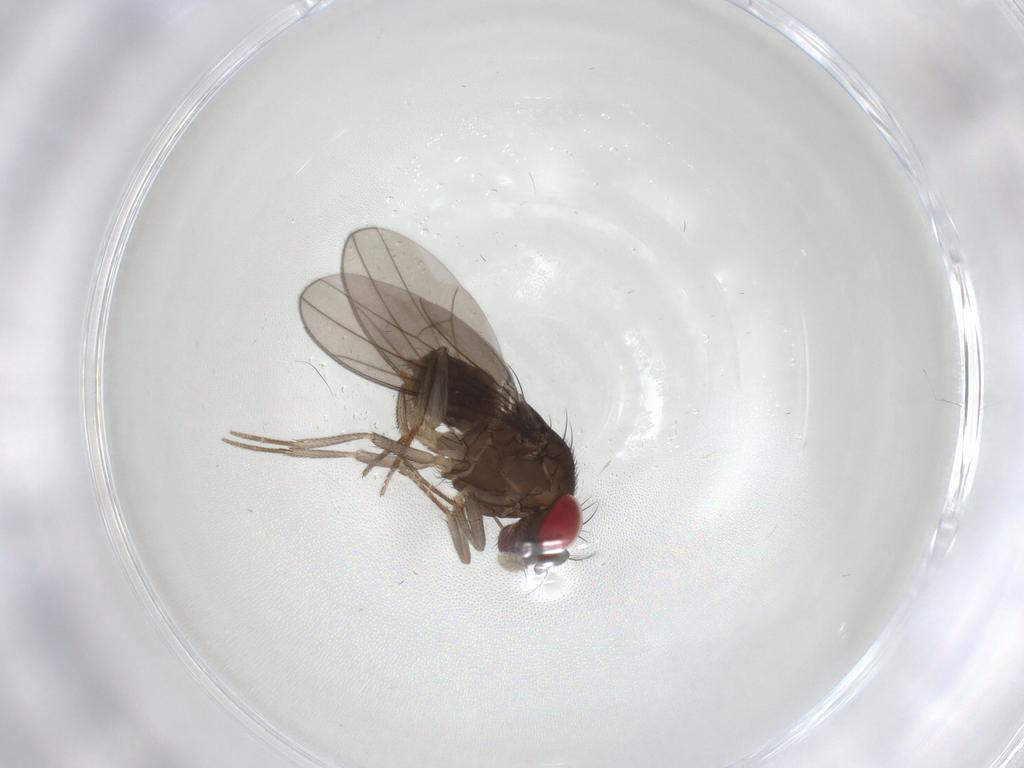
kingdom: Animalia
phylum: Arthropoda
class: Insecta
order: Diptera
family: Drosophilidae
